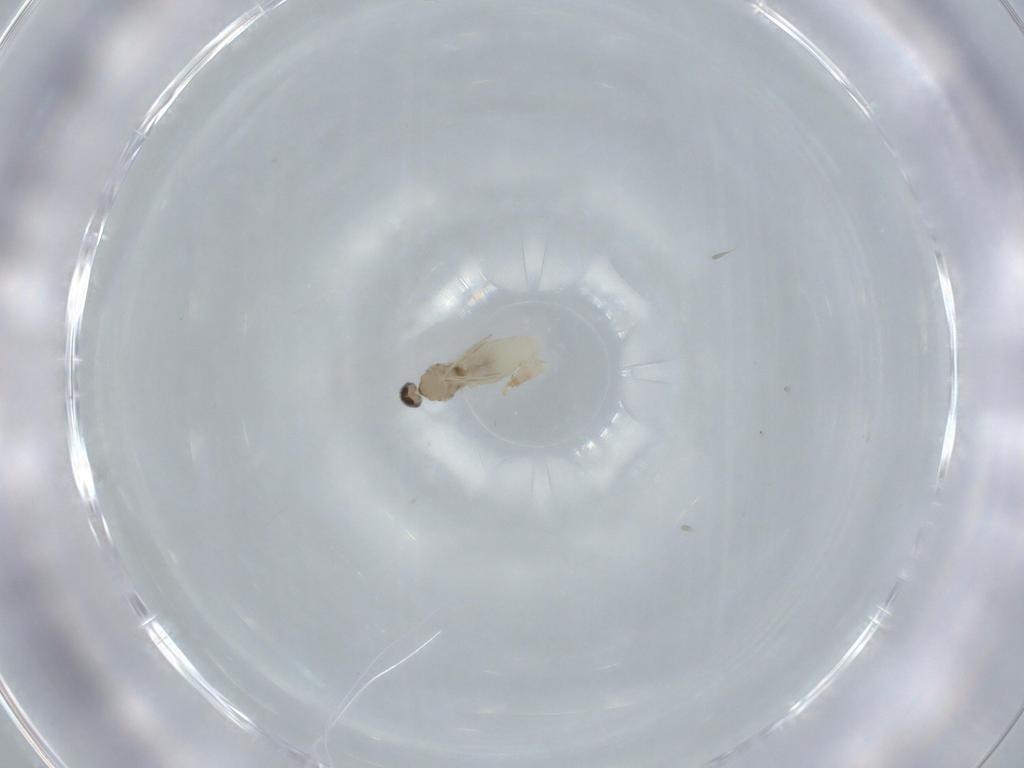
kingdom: Animalia
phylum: Arthropoda
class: Insecta
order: Diptera
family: Cecidomyiidae
